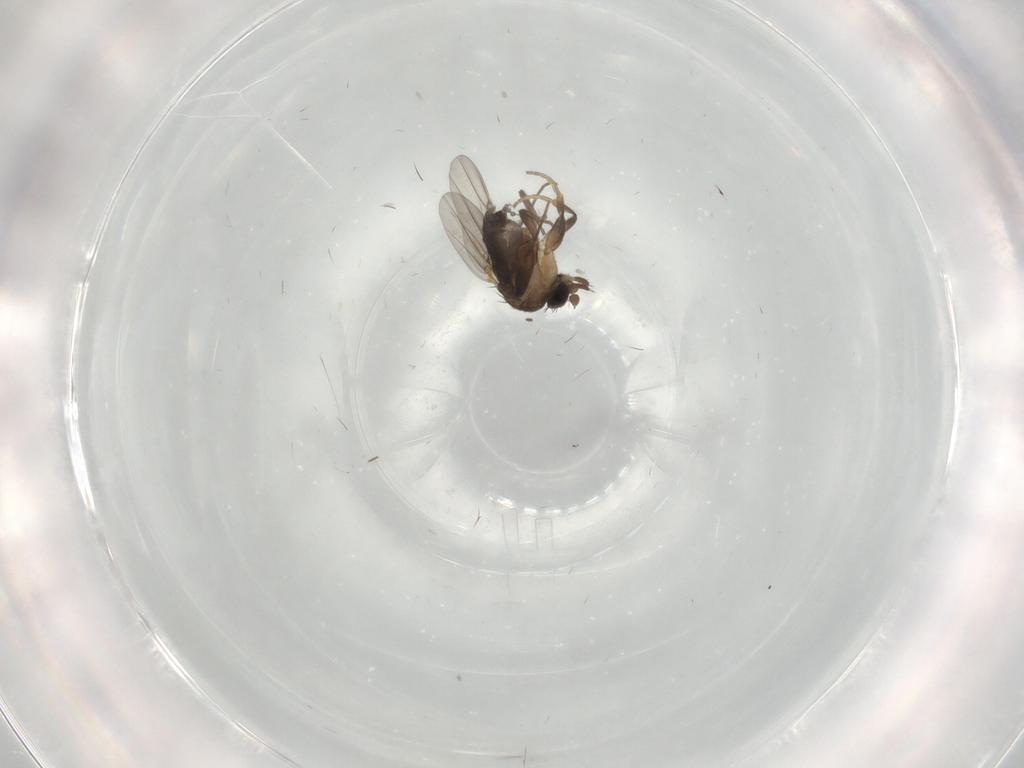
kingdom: Animalia
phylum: Arthropoda
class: Insecta
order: Diptera
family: Phoridae
